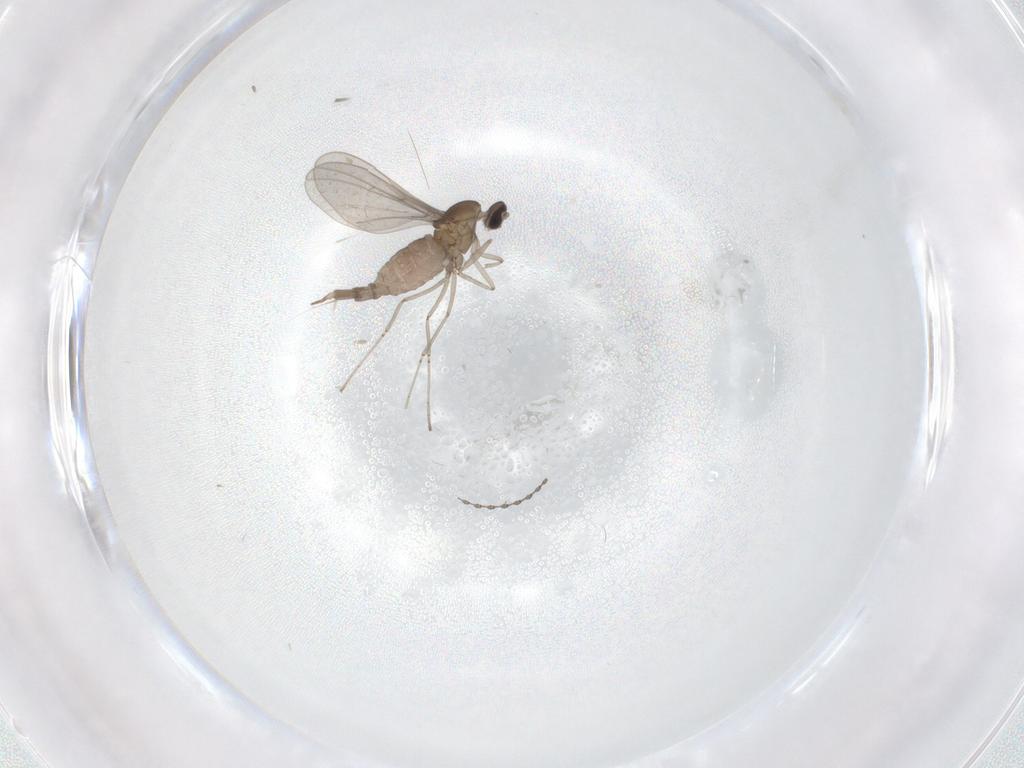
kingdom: Animalia
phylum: Arthropoda
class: Insecta
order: Diptera
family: Cecidomyiidae
